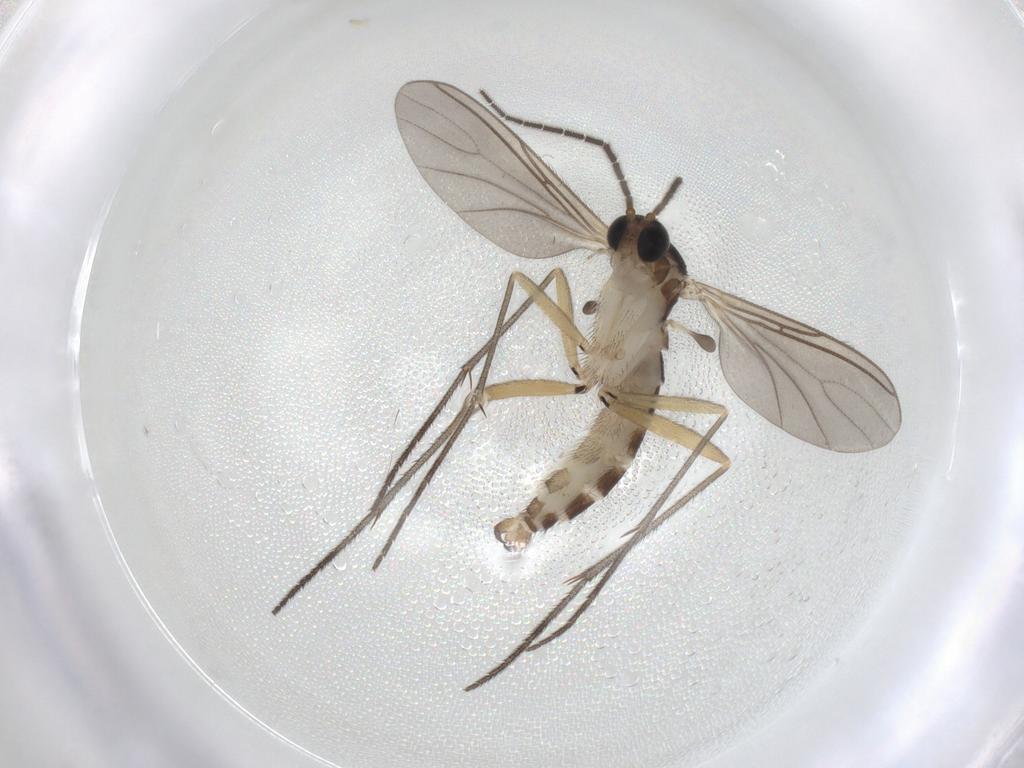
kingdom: Animalia
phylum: Arthropoda
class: Insecta
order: Diptera
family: Sciaridae
